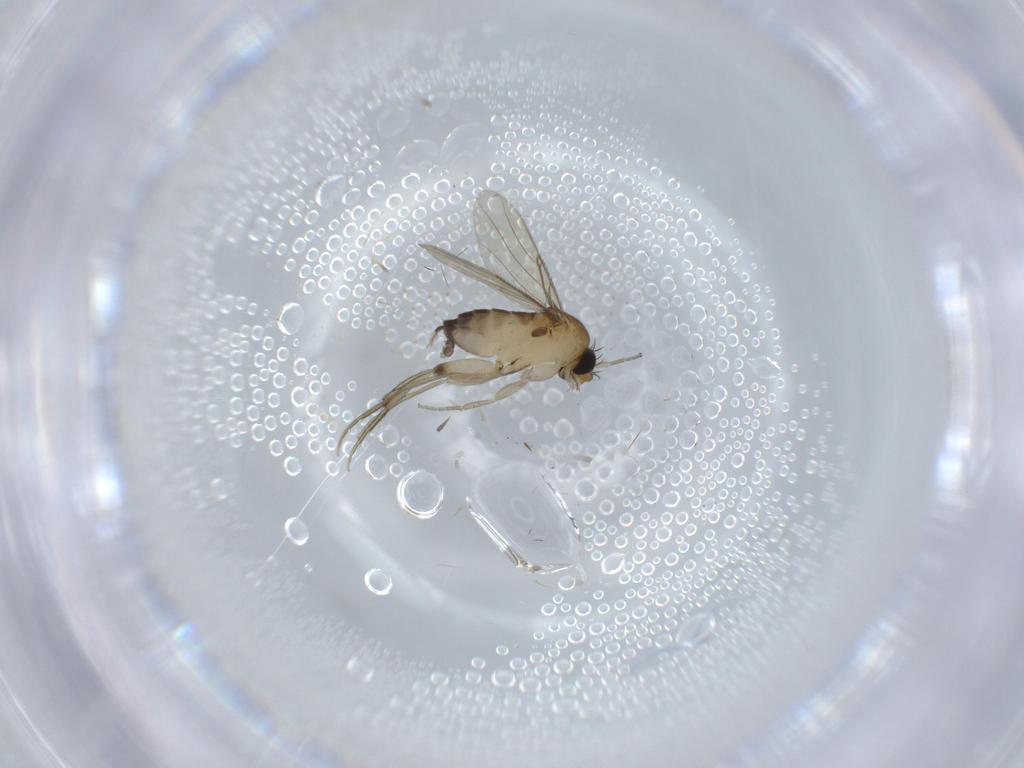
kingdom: Animalia
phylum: Arthropoda
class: Insecta
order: Diptera
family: Phoridae
